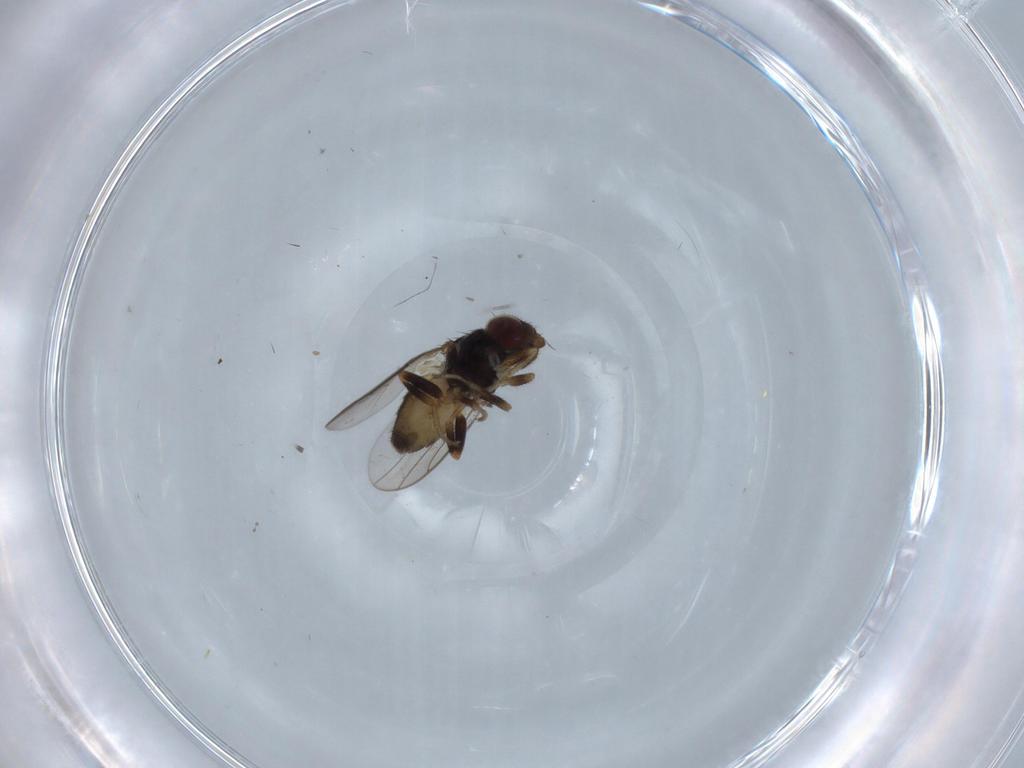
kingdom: Animalia
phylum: Arthropoda
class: Insecta
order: Diptera
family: Chloropidae
